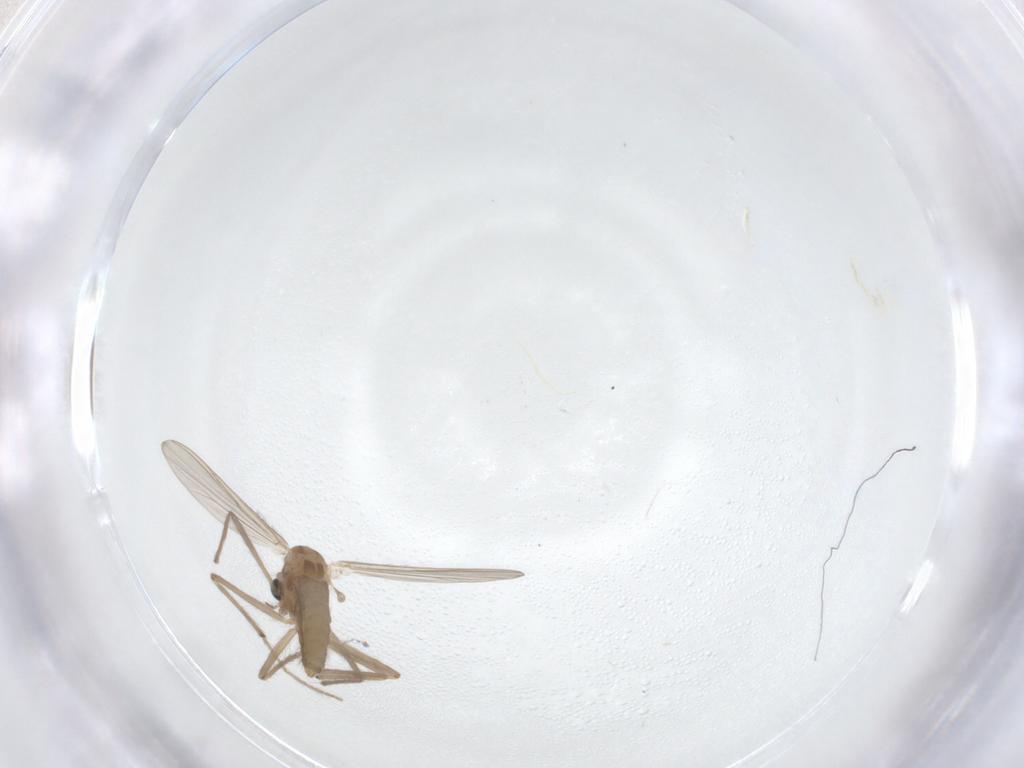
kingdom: Animalia
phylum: Arthropoda
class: Insecta
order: Diptera
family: Chironomidae
